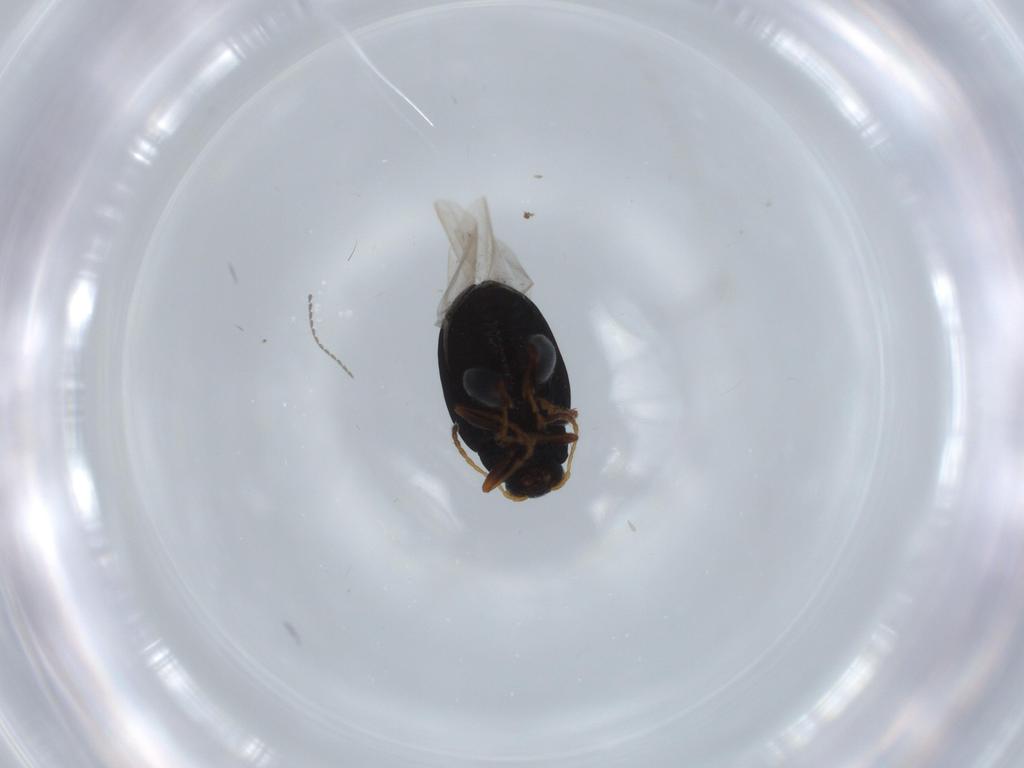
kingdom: Animalia
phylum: Arthropoda
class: Insecta
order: Coleoptera
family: Chrysomelidae
